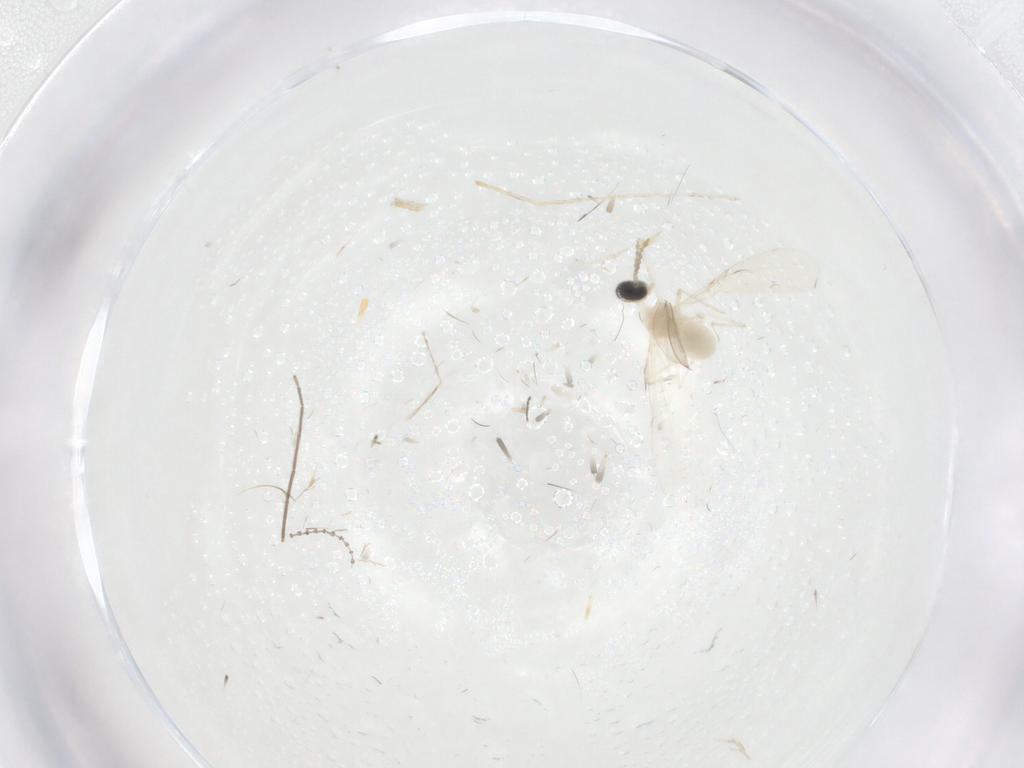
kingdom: Animalia
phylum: Arthropoda
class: Insecta
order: Diptera
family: Cecidomyiidae
